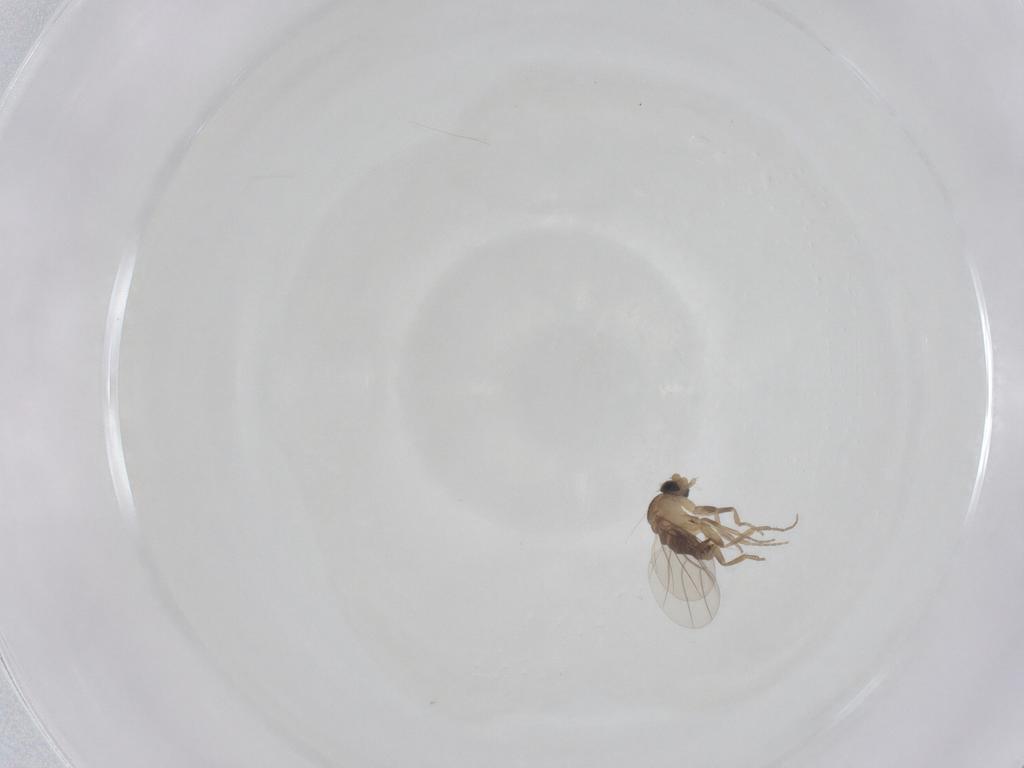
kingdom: Animalia
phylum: Arthropoda
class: Insecta
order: Diptera
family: Phoridae
